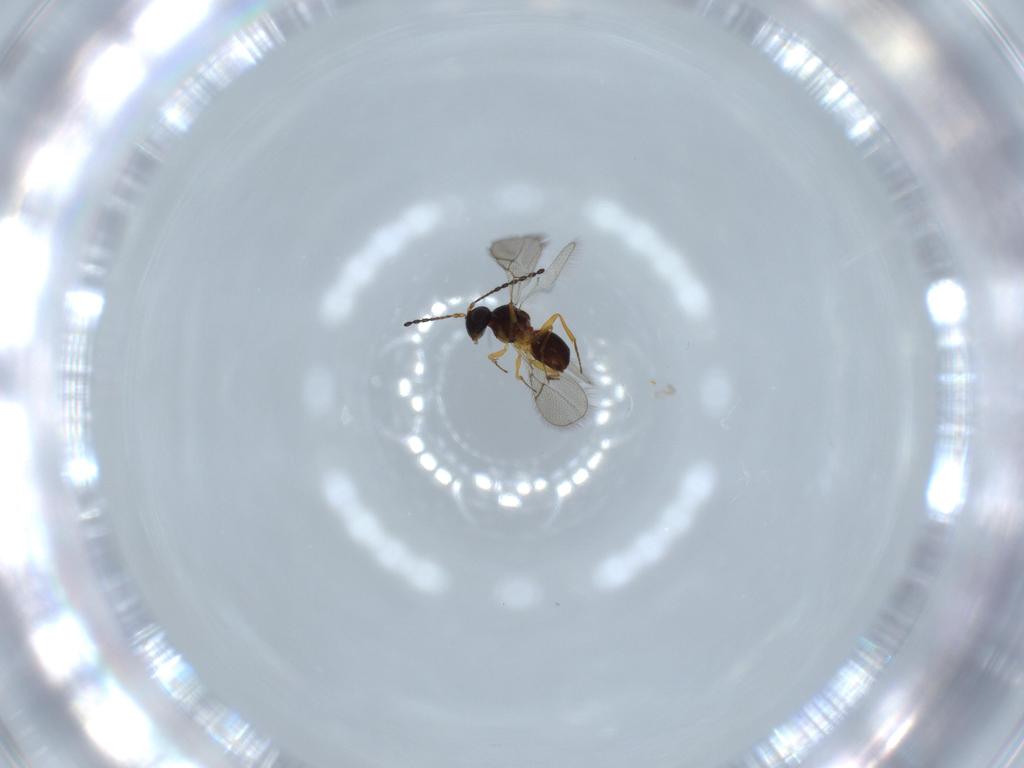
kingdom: Animalia
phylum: Arthropoda
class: Insecta
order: Hymenoptera
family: Figitidae
